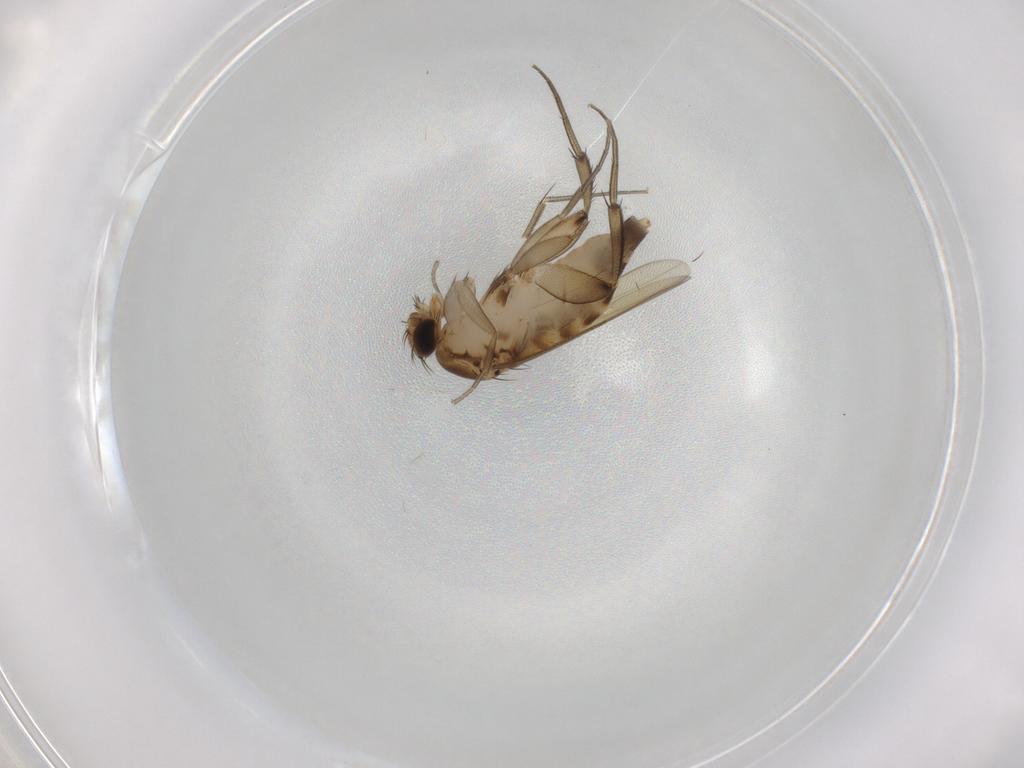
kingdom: Animalia
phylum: Arthropoda
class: Insecta
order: Diptera
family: Phoridae
